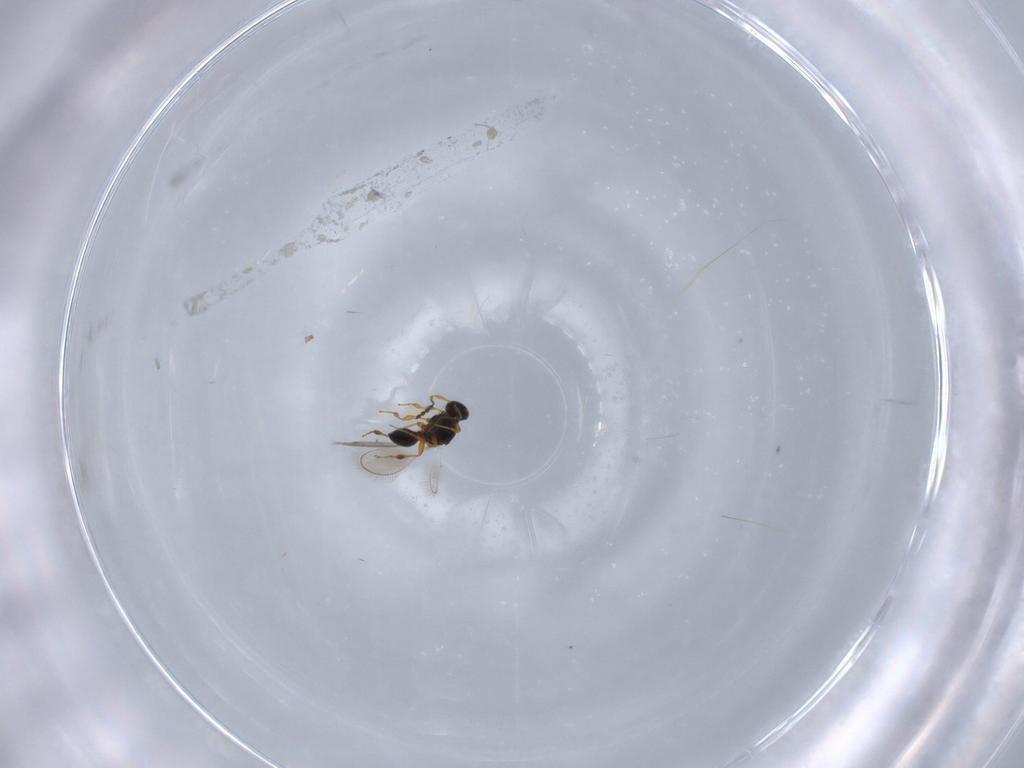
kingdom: Animalia
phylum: Arthropoda
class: Insecta
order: Hymenoptera
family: Platygastridae
